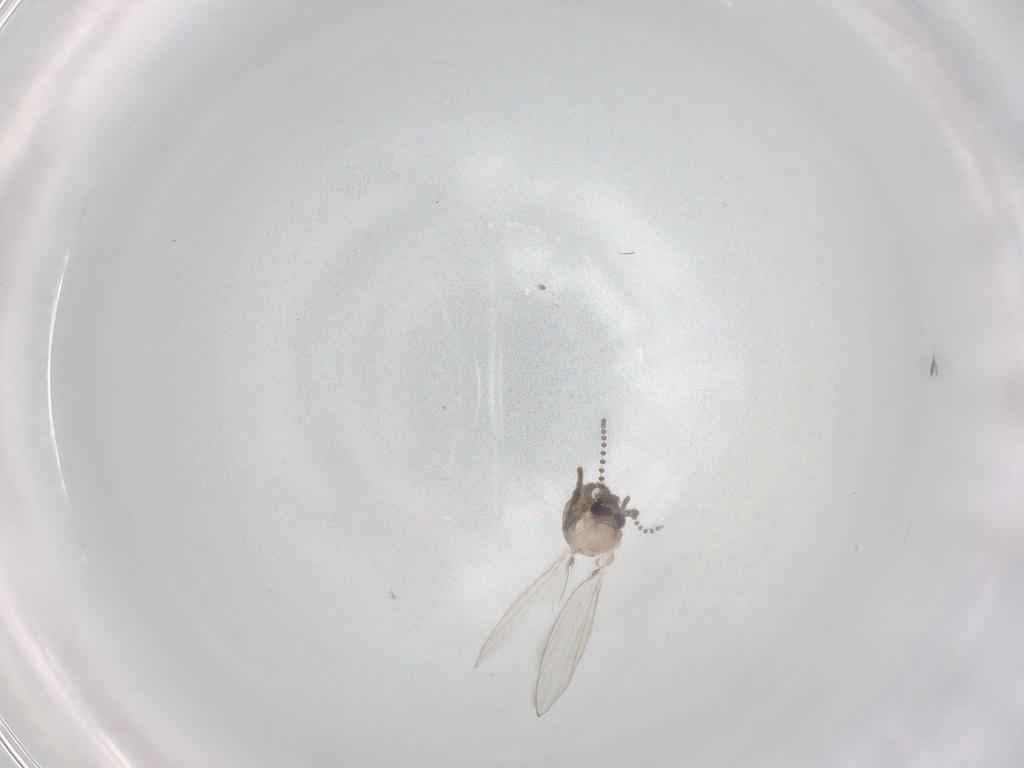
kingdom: Animalia
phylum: Arthropoda
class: Insecta
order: Diptera
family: Psychodidae
